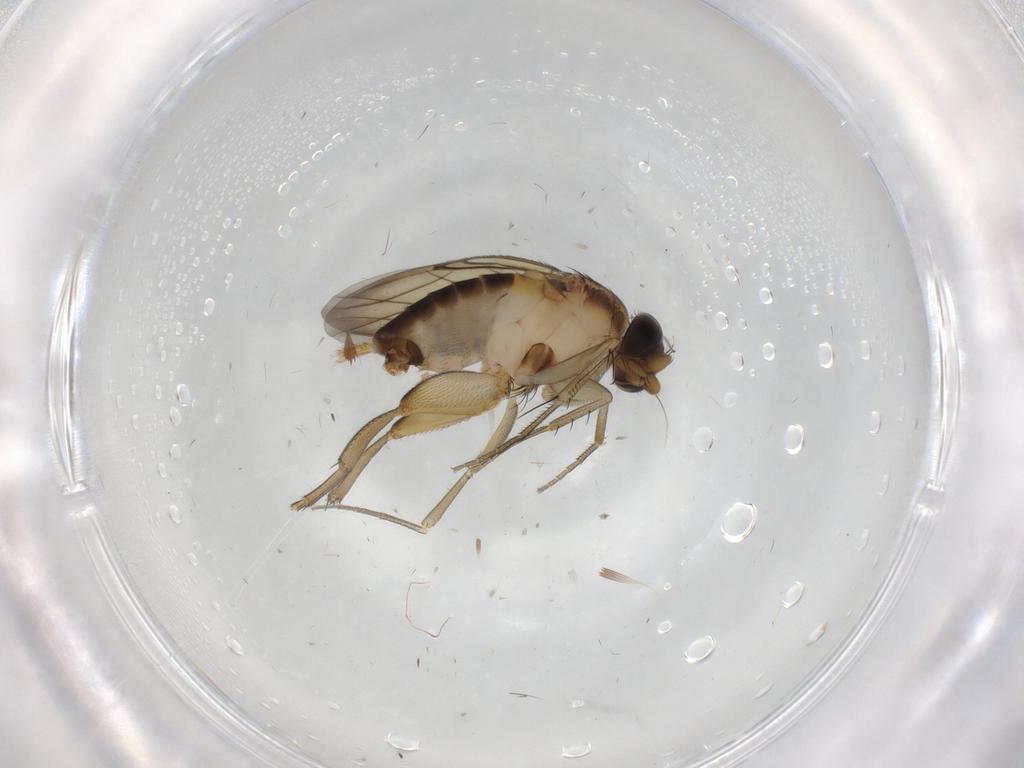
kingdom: Animalia
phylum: Arthropoda
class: Insecta
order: Diptera
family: Phoridae
